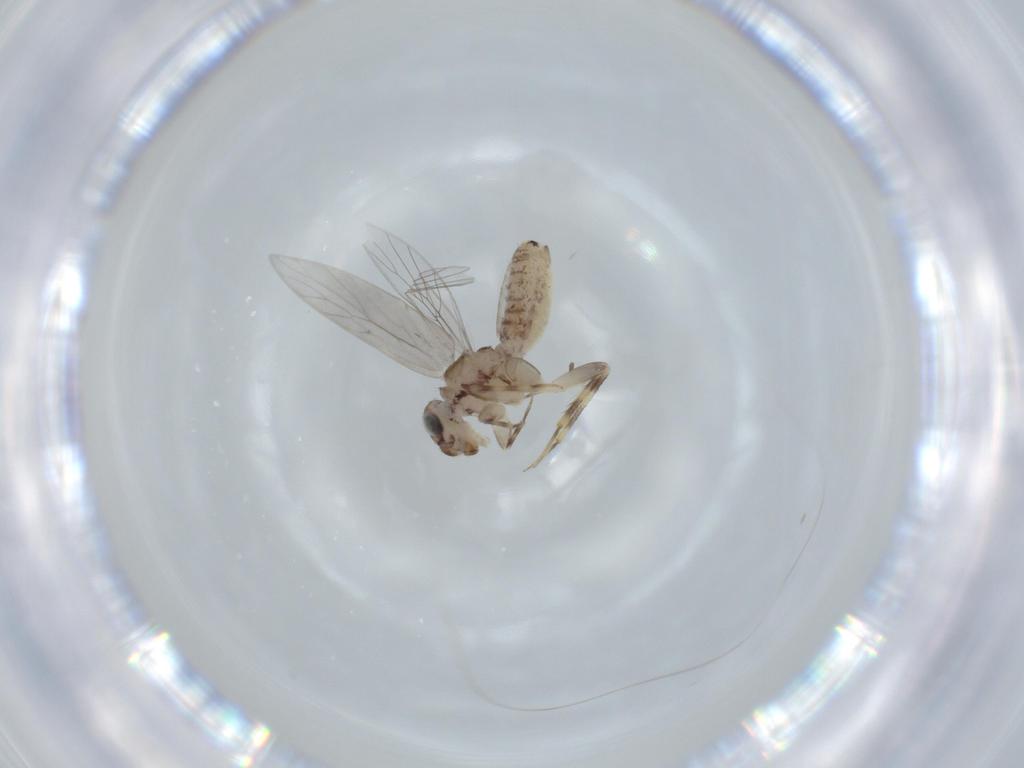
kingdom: Animalia
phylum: Arthropoda
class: Insecta
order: Psocodea
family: Lepidopsocidae
